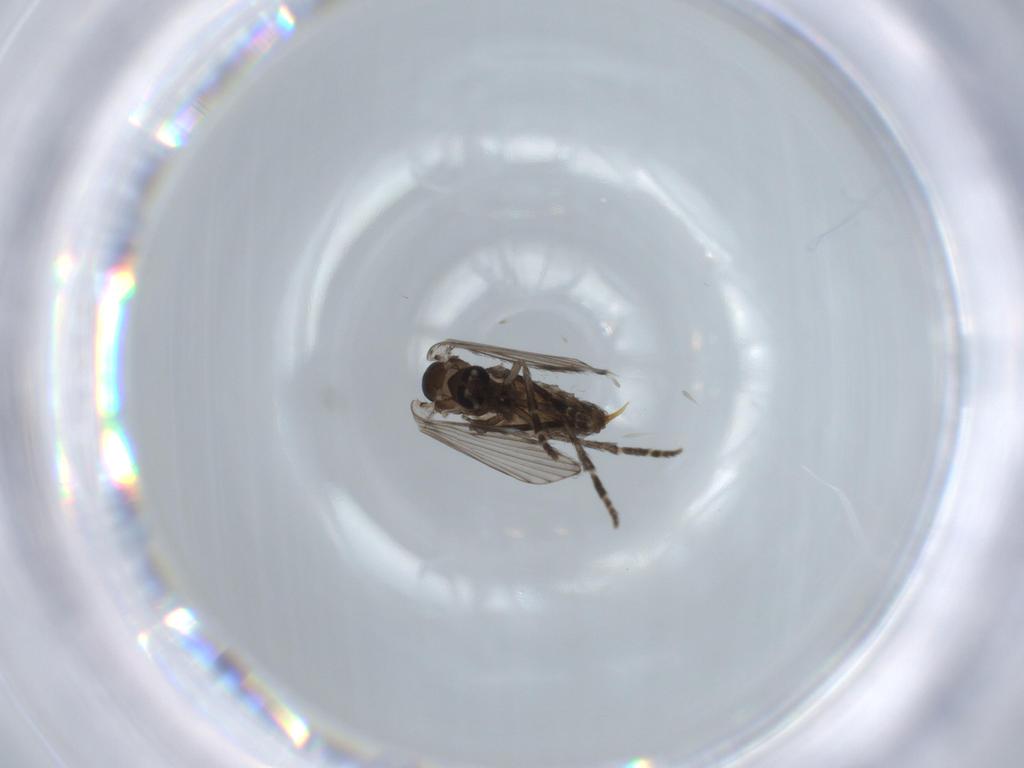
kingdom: Animalia
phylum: Arthropoda
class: Insecta
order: Diptera
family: Psychodidae
